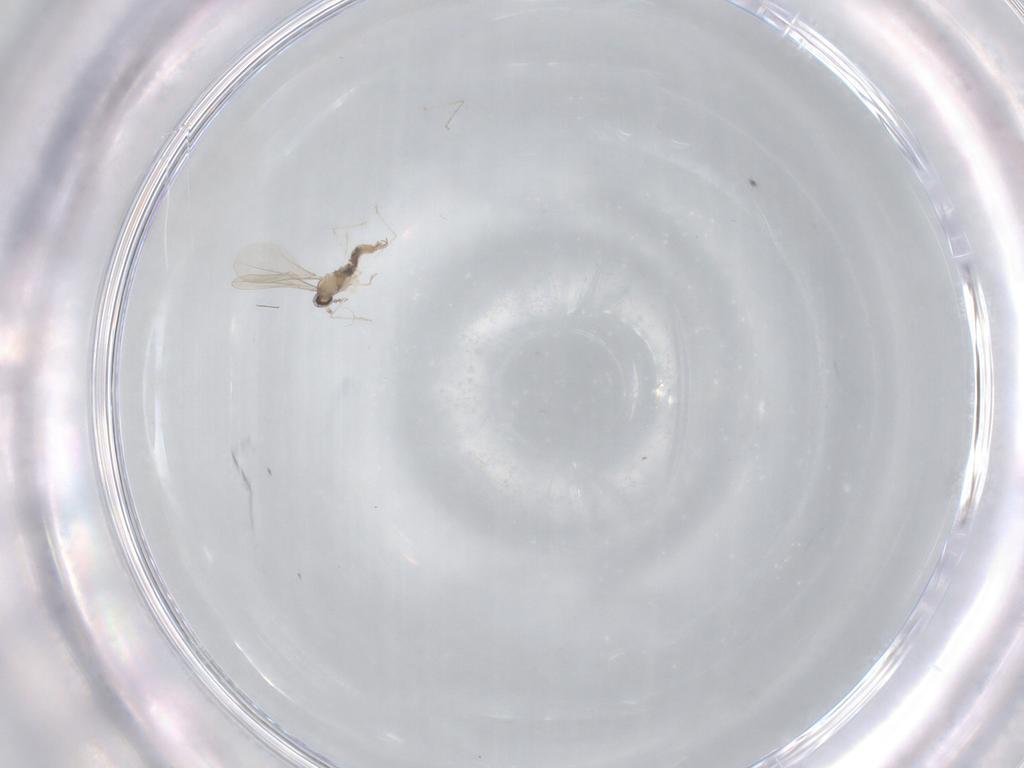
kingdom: Animalia
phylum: Arthropoda
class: Insecta
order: Diptera
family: Cecidomyiidae
